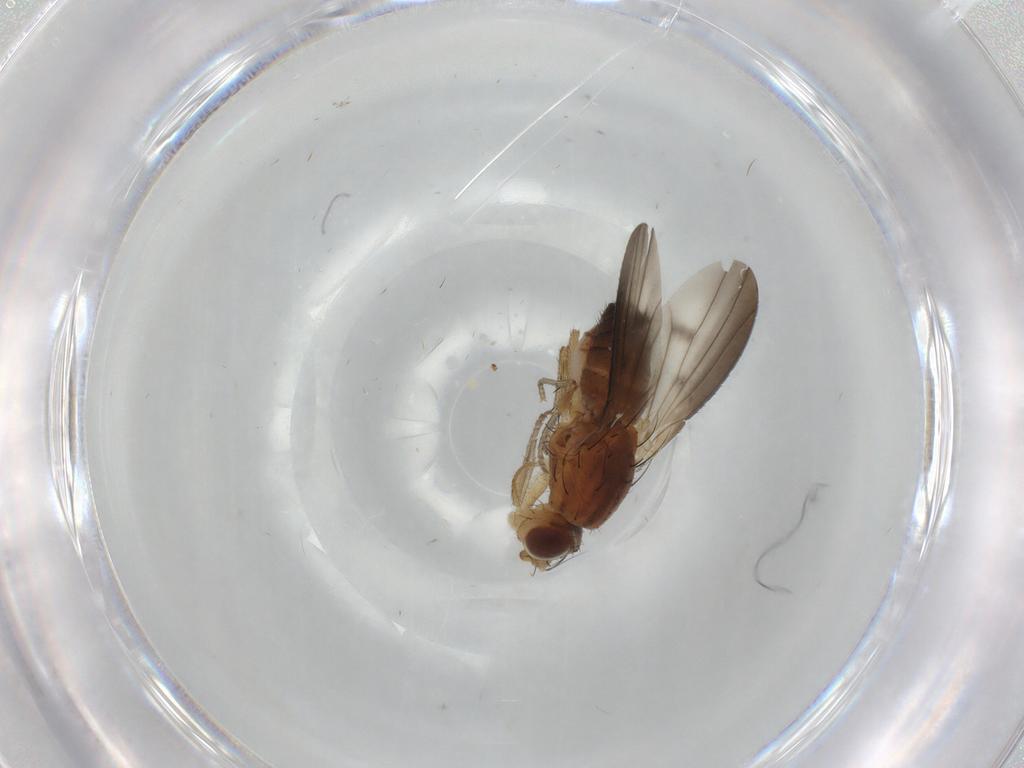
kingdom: Animalia
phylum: Arthropoda
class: Insecta
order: Diptera
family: Heleomyzidae
